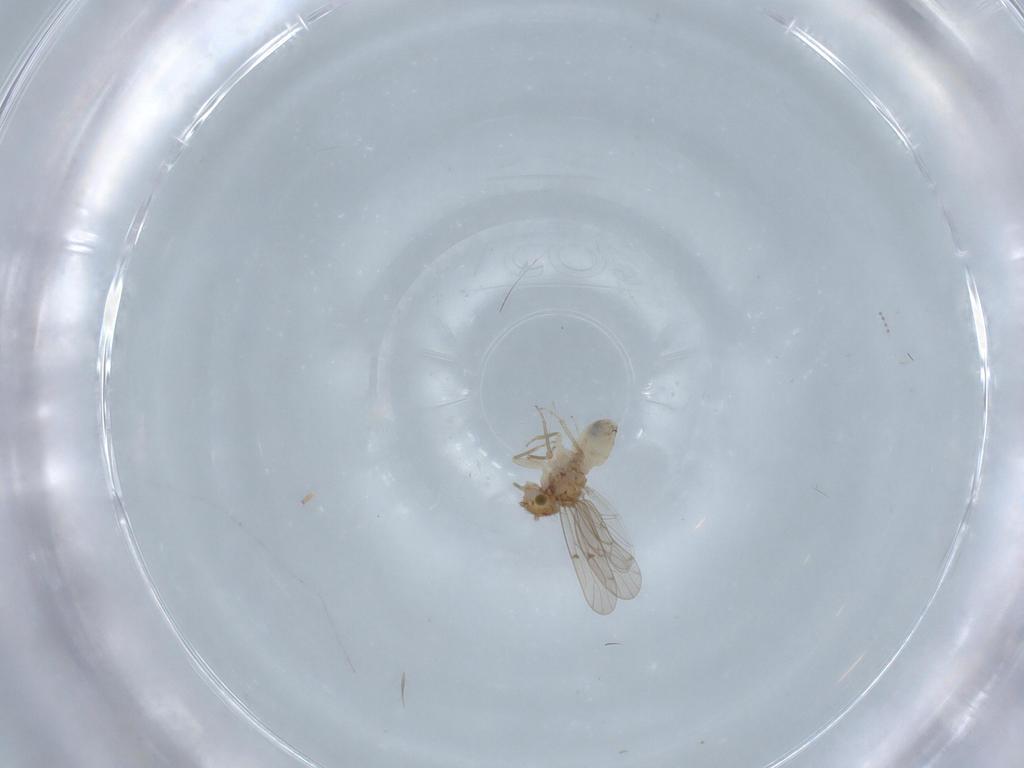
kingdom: Animalia
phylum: Arthropoda
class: Insecta
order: Psocodea
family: Ectopsocidae
